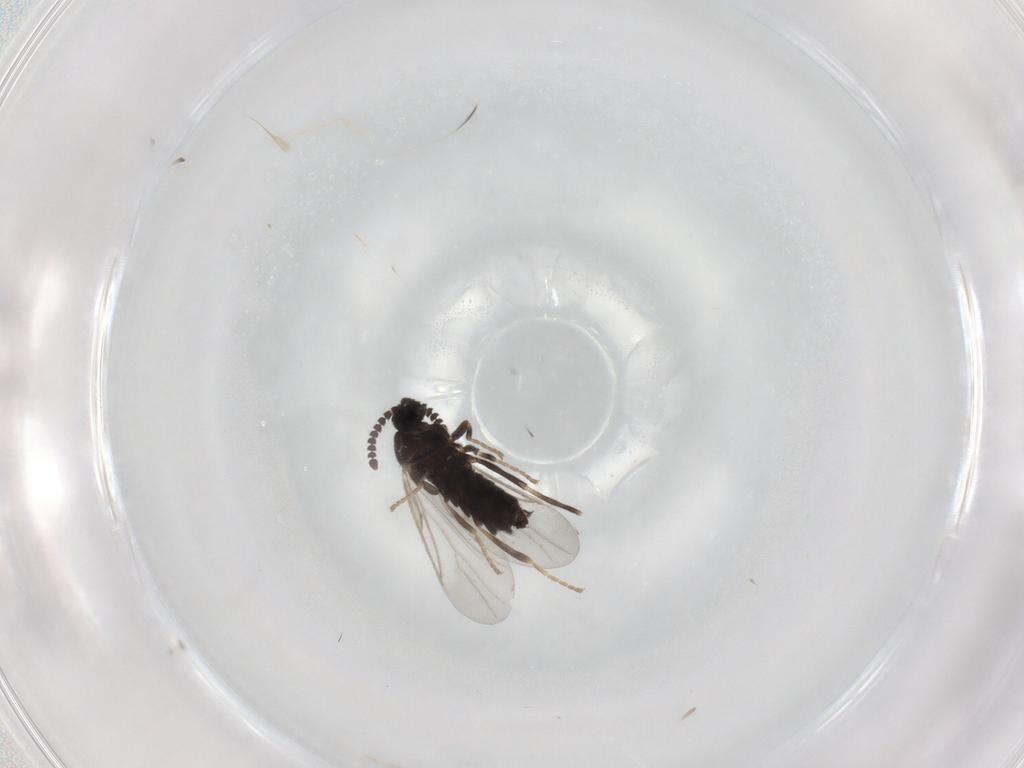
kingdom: Animalia
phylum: Arthropoda
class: Insecta
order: Diptera
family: Scatopsidae
